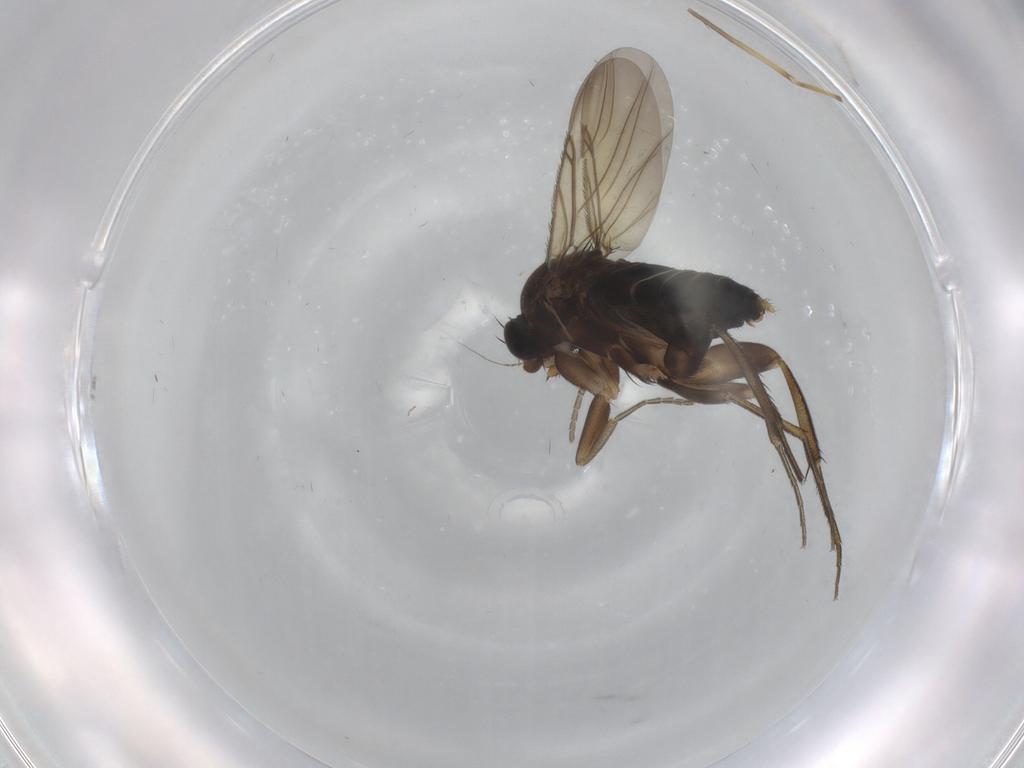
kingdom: Animalia
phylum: Arthropoda
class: Insecta
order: Diptera
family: Phoridae
